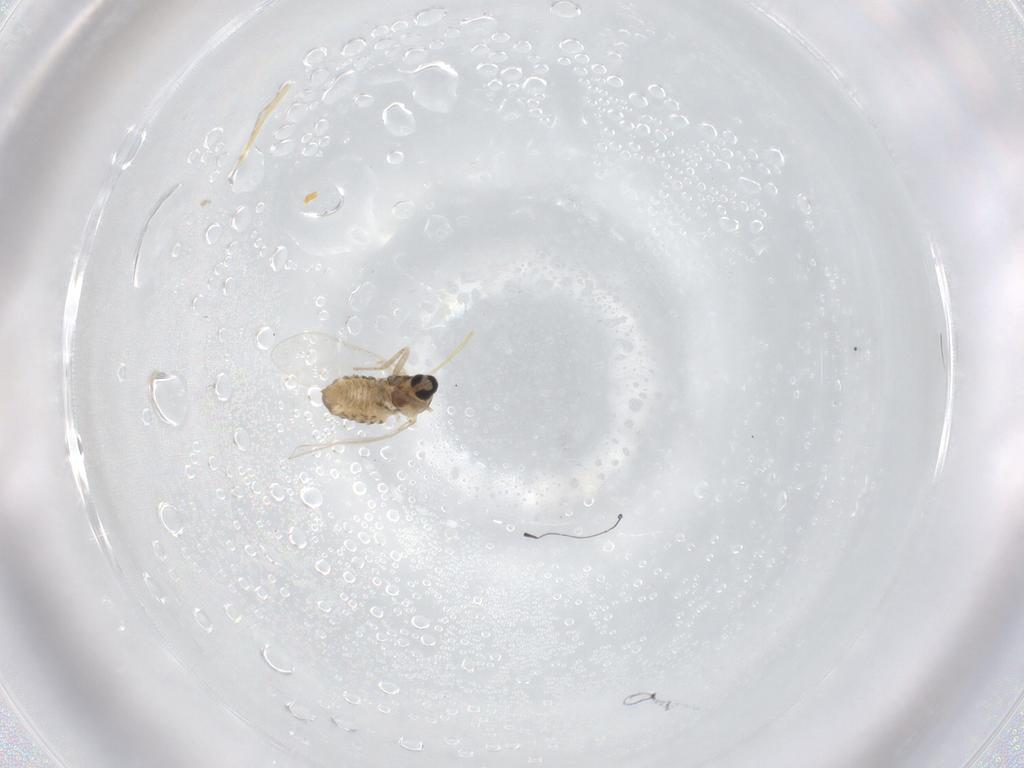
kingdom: Animalia
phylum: Arthropoda
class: Insecta
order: Diptera
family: Cecidomyiidae
